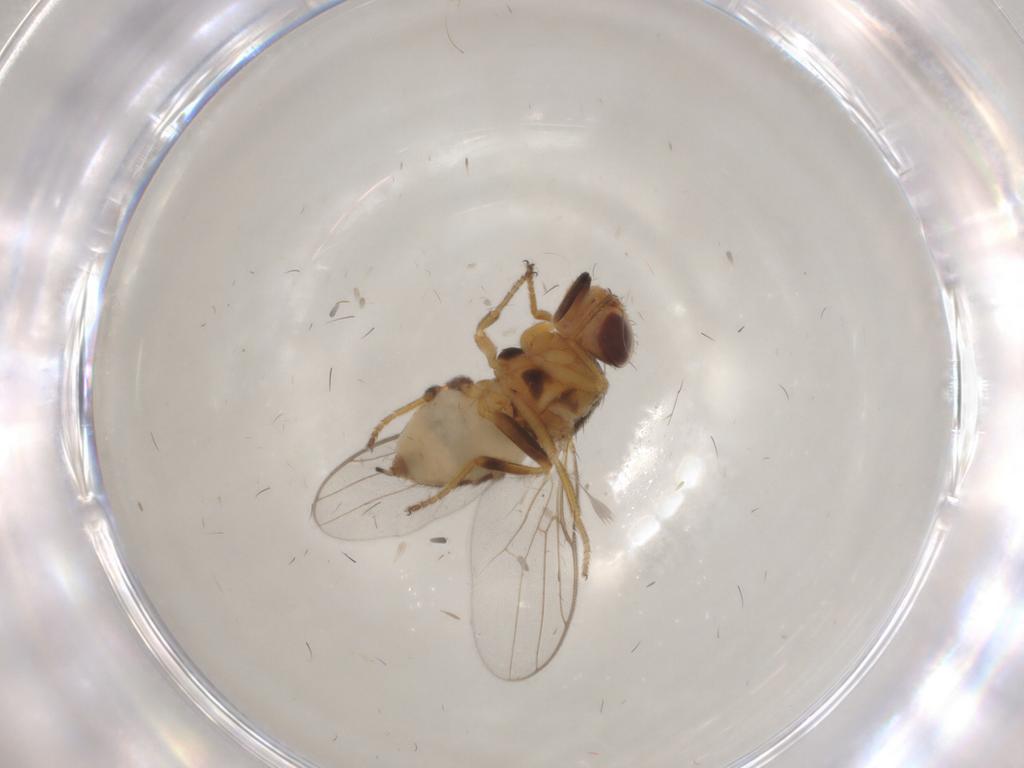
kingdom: Animalia
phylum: Arthropoda
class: Insecta
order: Diptera
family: Chloropidae
